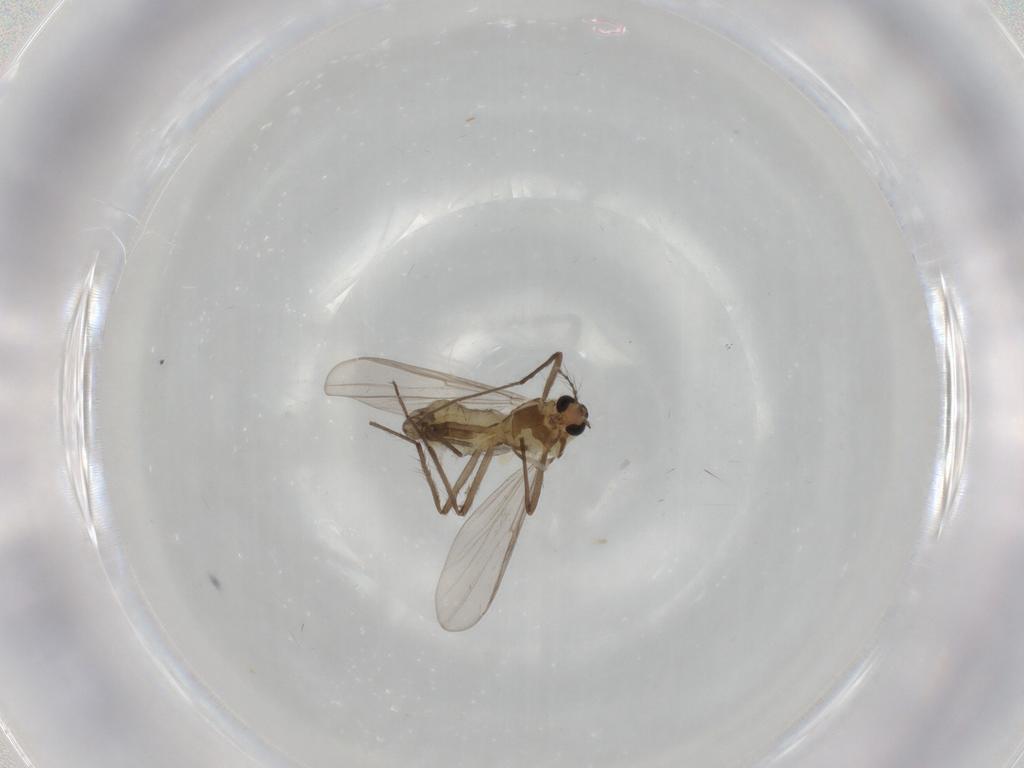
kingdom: Animalia
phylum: Arthropoda
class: Insecta
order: Diptera
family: Chironomidae
